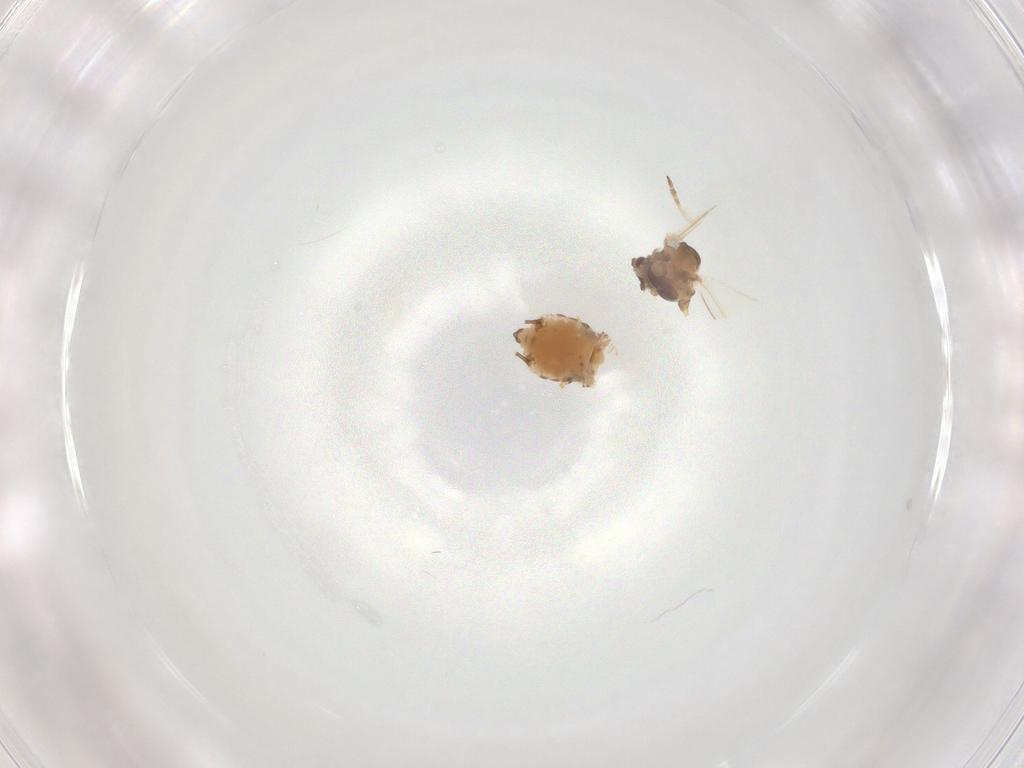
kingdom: Animalia
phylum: Arthropoda
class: Insecta
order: Hemiptera
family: Aphididae
